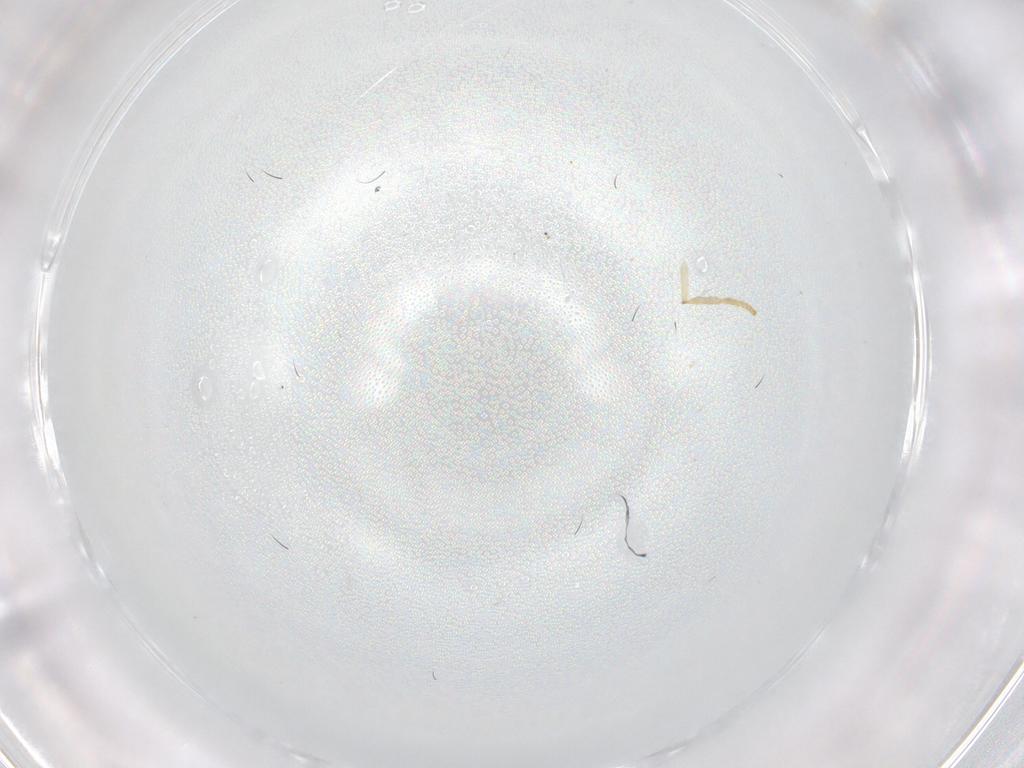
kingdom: Animalia
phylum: Arthropoda
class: Insecta
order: Diptera
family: Psychodidae
